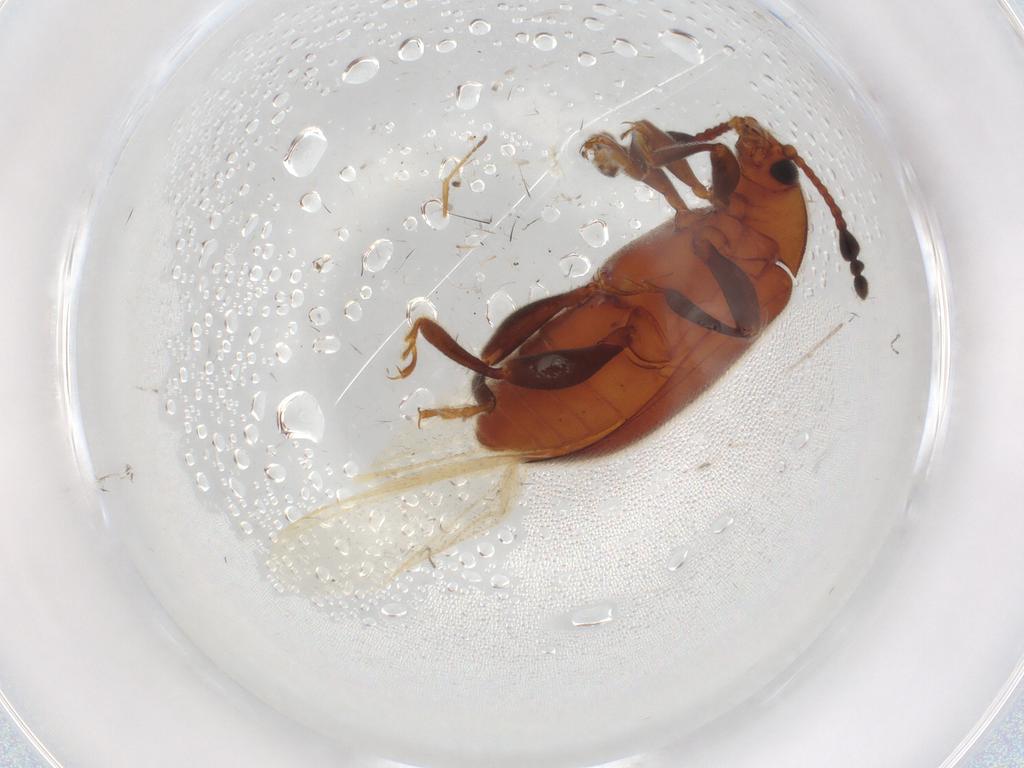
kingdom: Animalia
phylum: Arthropoda
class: Insecta
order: Coleoptera
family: Endomychidae
